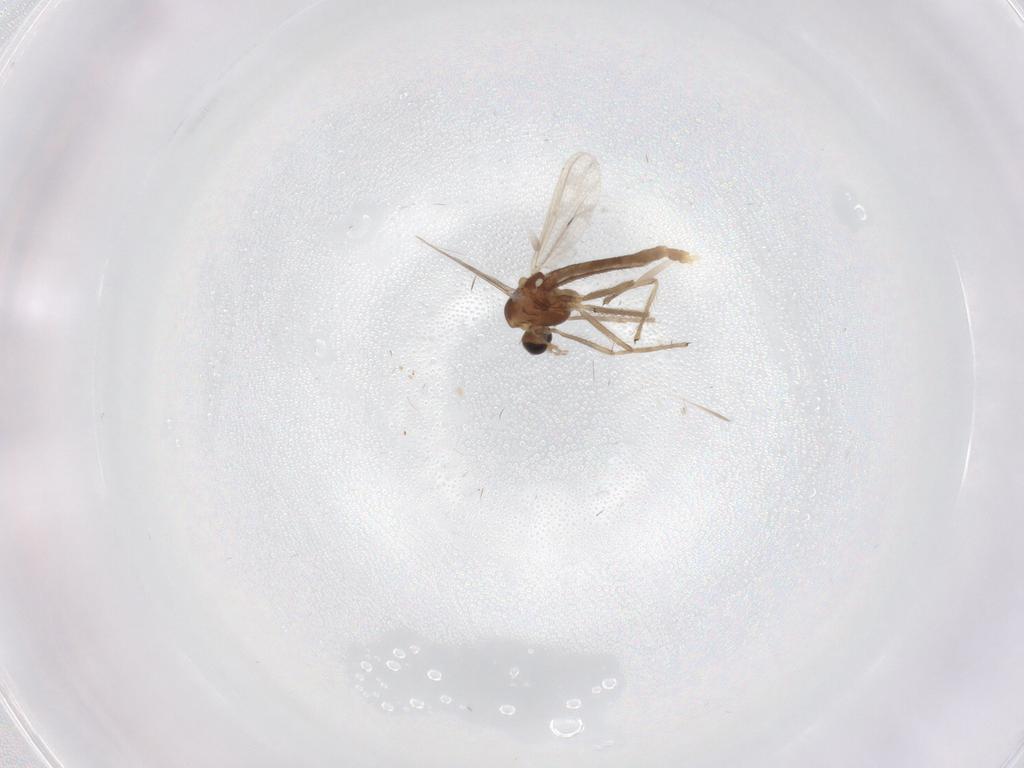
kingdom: Animalia
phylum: Arthropoda
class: Insecta
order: Diptera
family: Chironomidae
